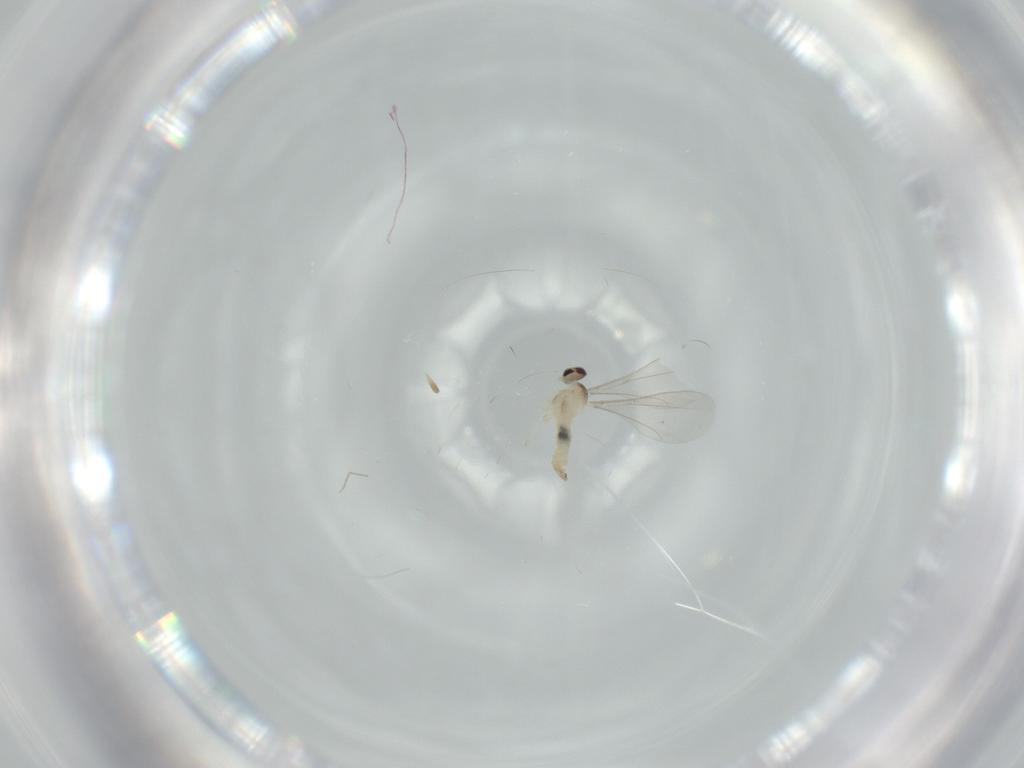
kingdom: Animalia
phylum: Arthropoda
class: Insecta
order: Diptera
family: Cecidomyiidae
